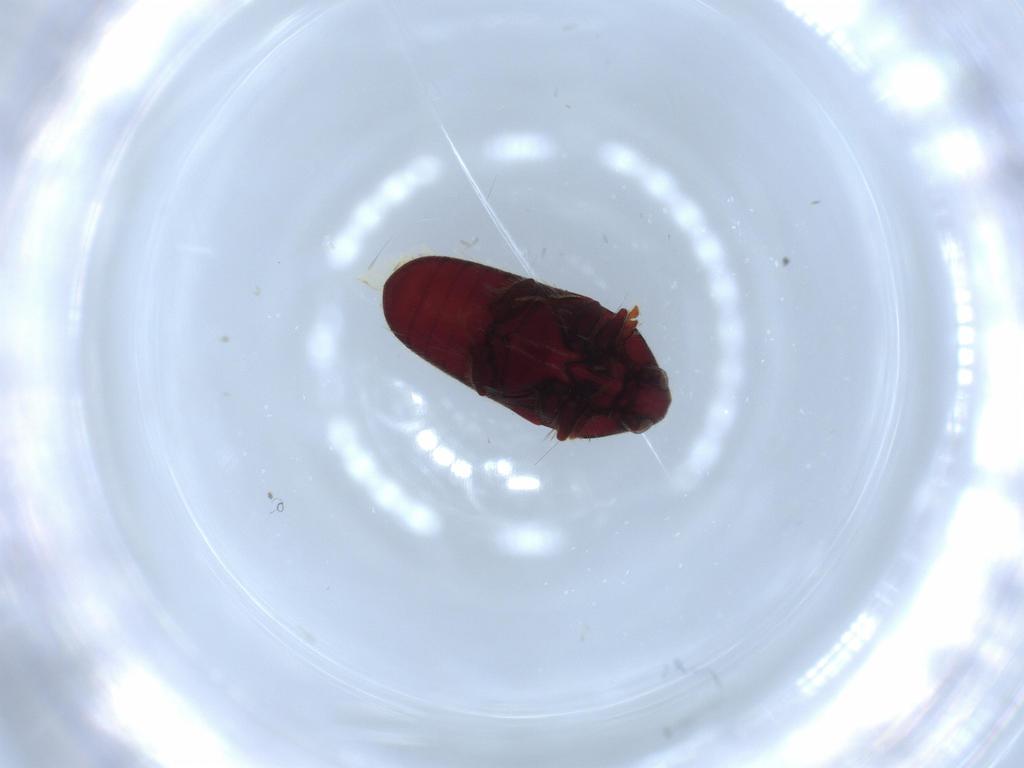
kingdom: Animalia
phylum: Arthropoda
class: Insecta
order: Coleoptera
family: Throscidae
